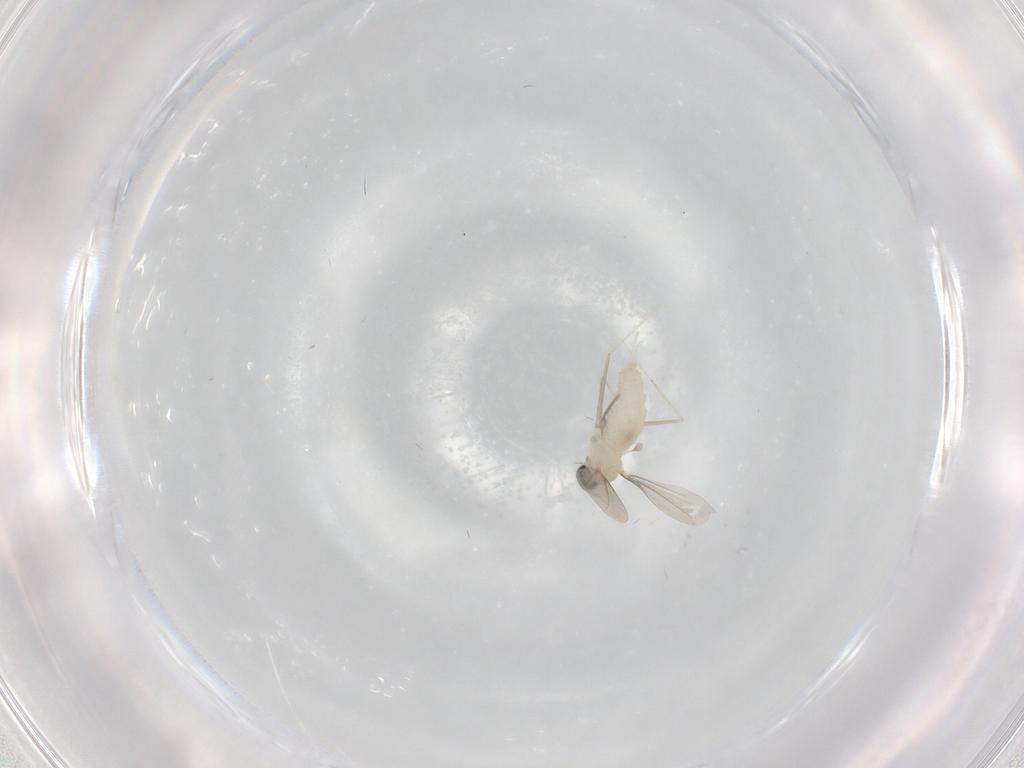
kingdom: Animalia
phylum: Arthropoda
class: Insecta
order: Diptera
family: Cecidomyiidae
